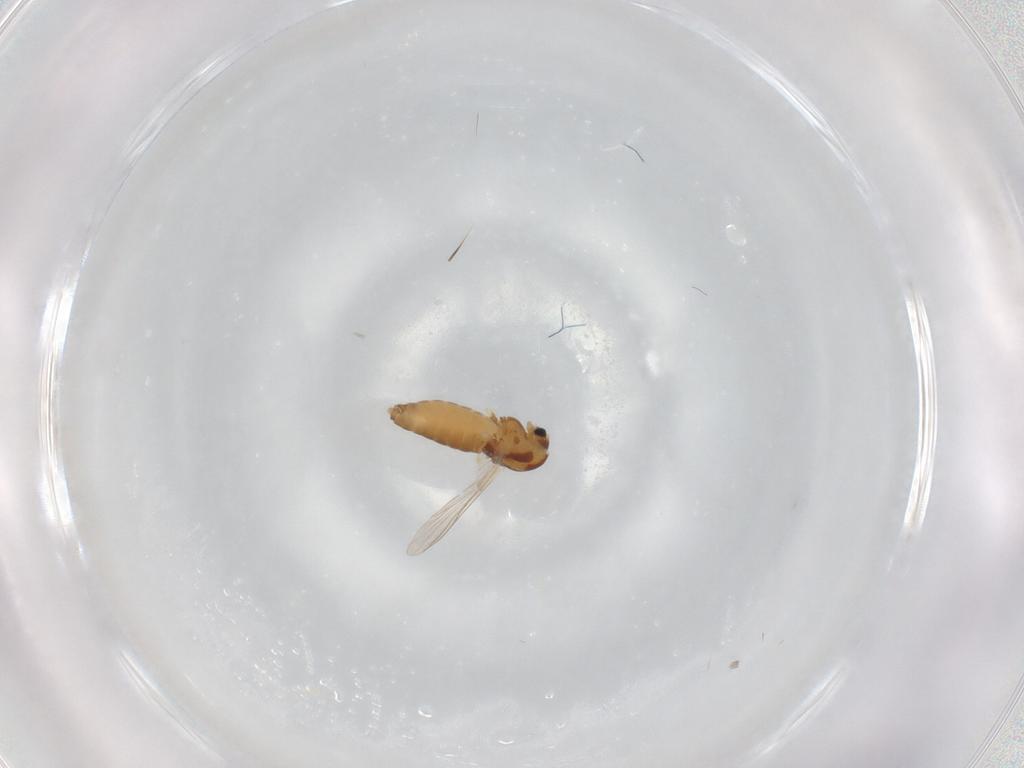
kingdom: Animalia
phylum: Arthropoda
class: Insecta
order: Diptera
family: Chironomidae
